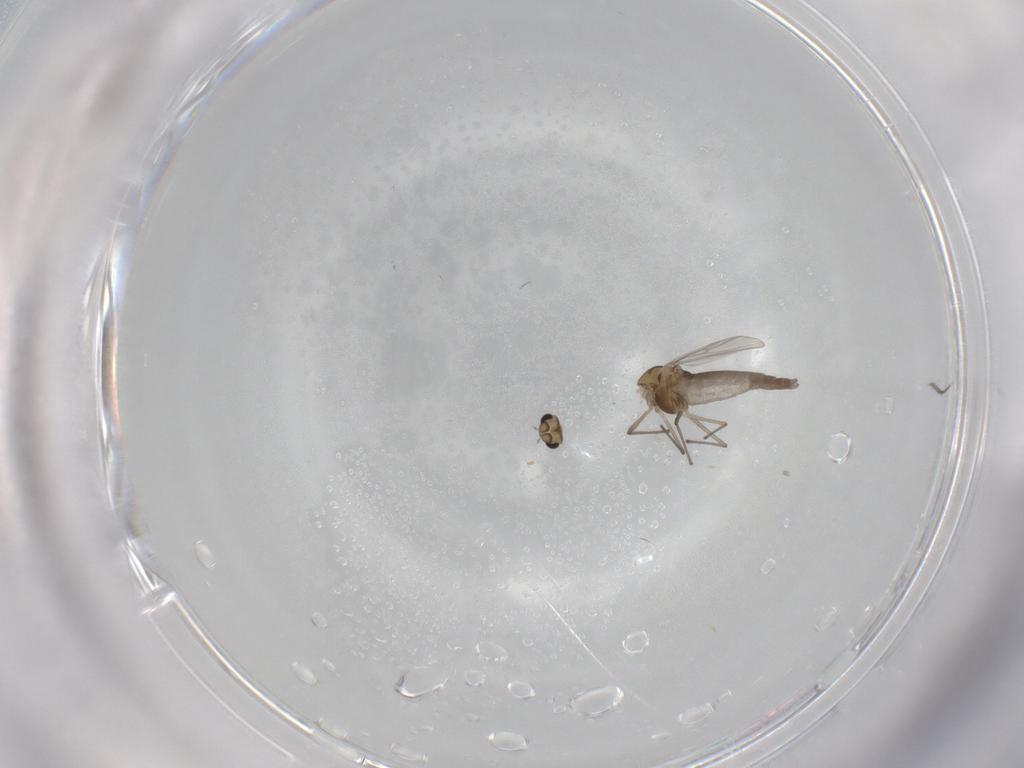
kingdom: Animalia
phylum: Arthropoda
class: Insecta
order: Diptera
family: Chironomidae
